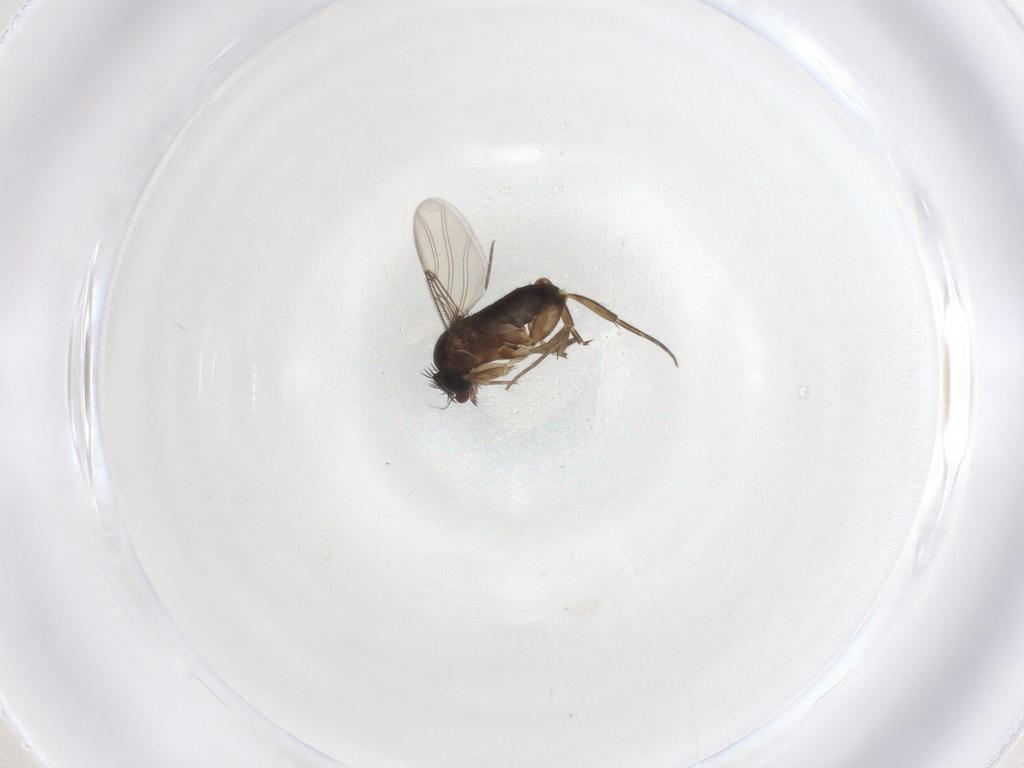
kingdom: Animalia
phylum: Arthropoda
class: Insecta
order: Diptera
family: Phoridae
